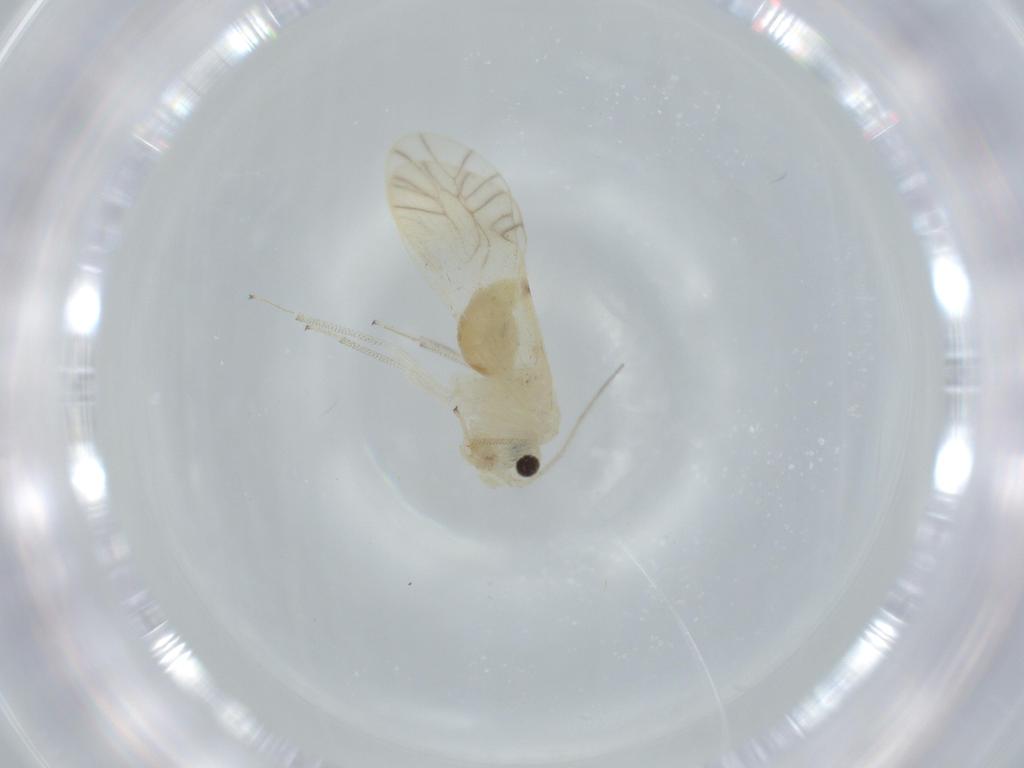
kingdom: Animalia
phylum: Arthropoda
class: Insecta
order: Psocodea
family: Caeciliusidae
